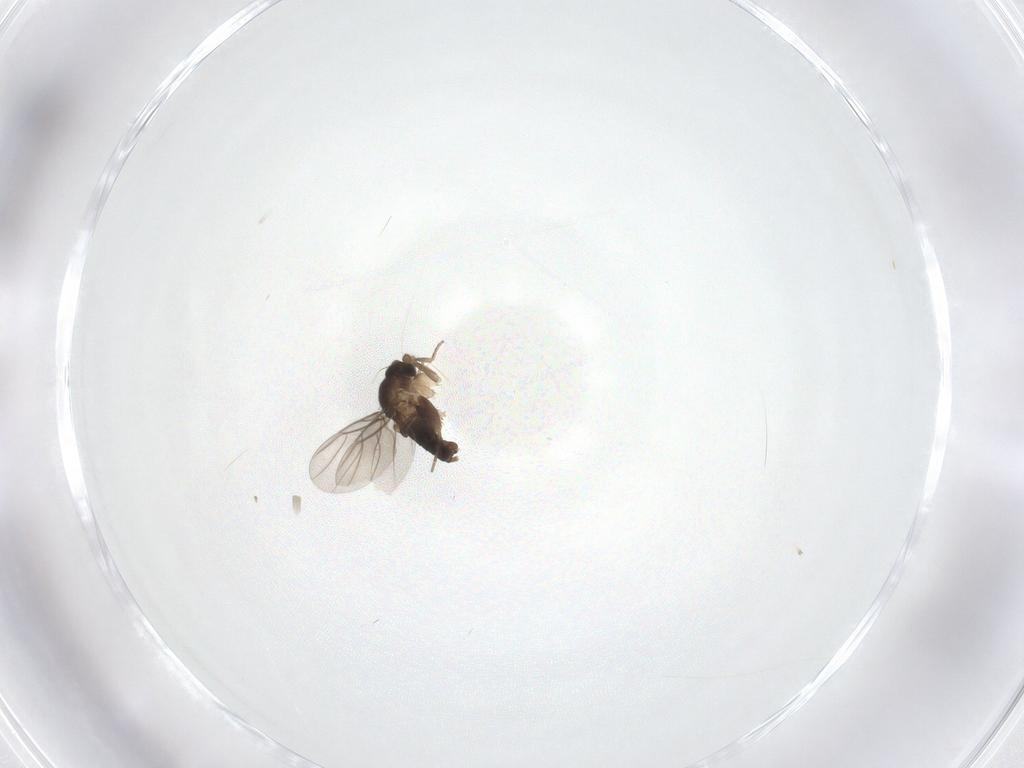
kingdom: Animalia
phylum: Arthropoda
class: Insecta
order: Diptera
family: Phoridae
